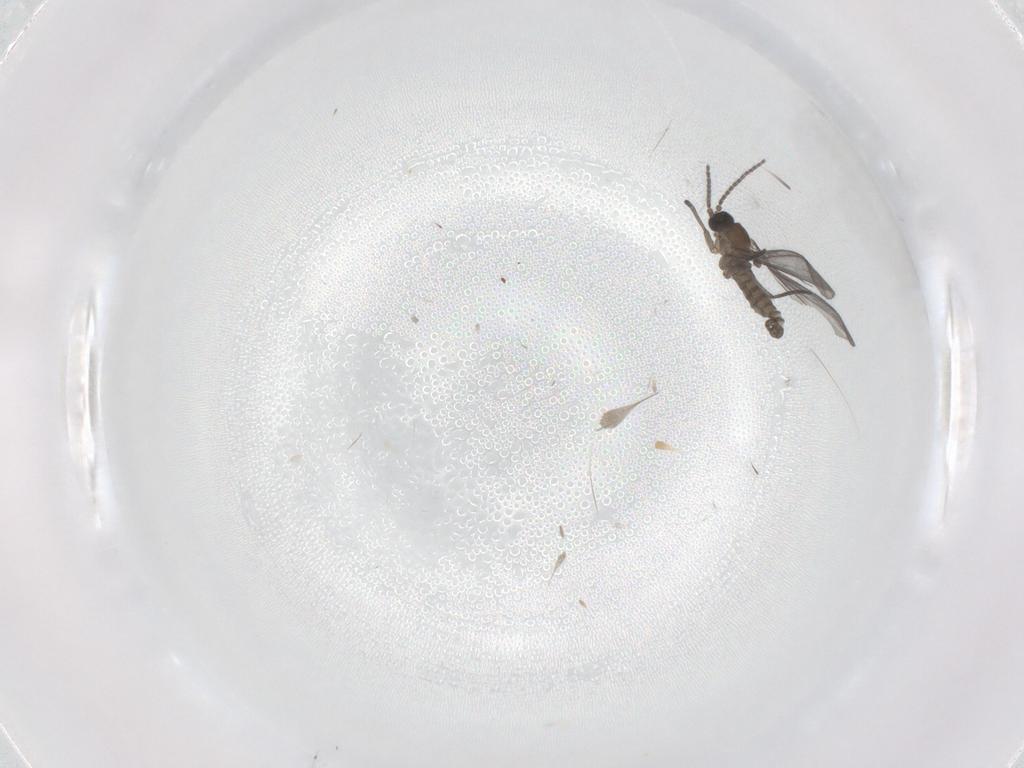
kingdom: Animalia
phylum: Arthropoda
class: Insecta
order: Diptera
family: Sciaridae
